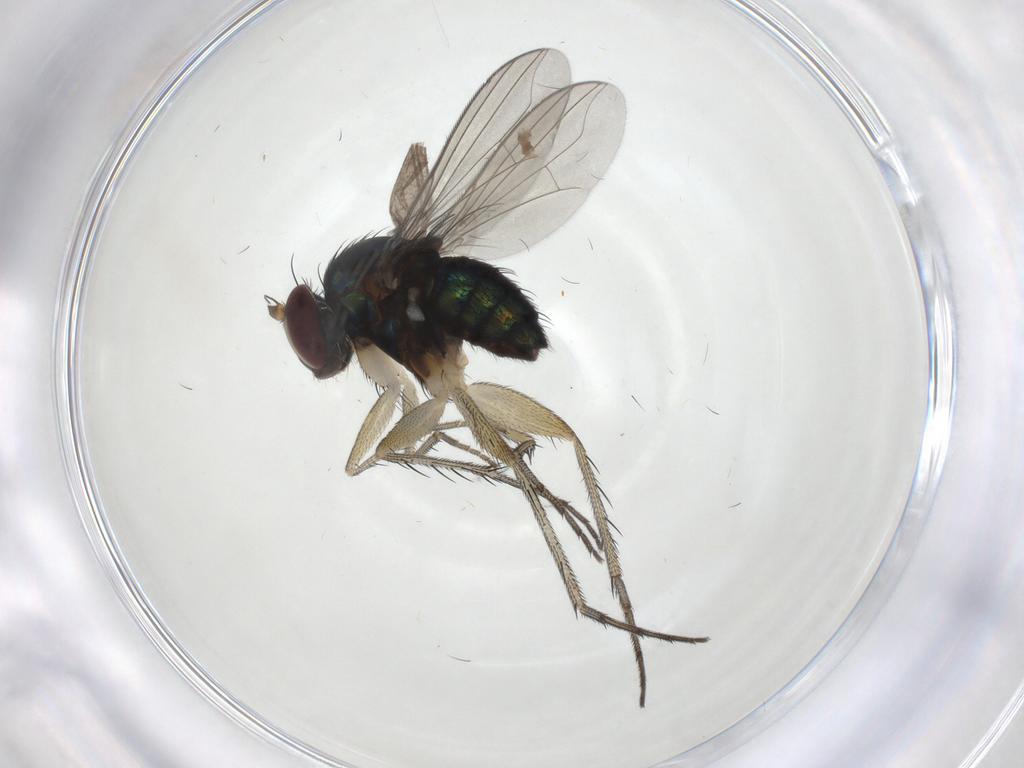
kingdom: Animalia
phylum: Arthropoda
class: Insecta
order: Diptera
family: Dolichopodidae
